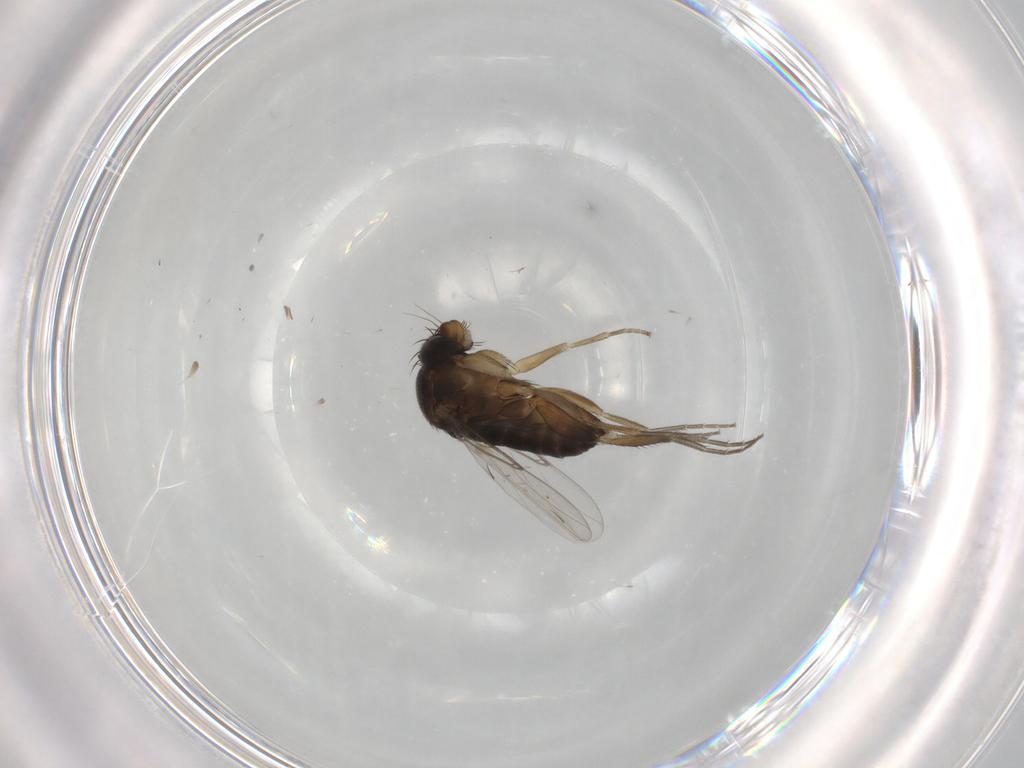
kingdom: Animalia
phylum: Arthropoda
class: Insecta
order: Diptera
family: Phoridae
